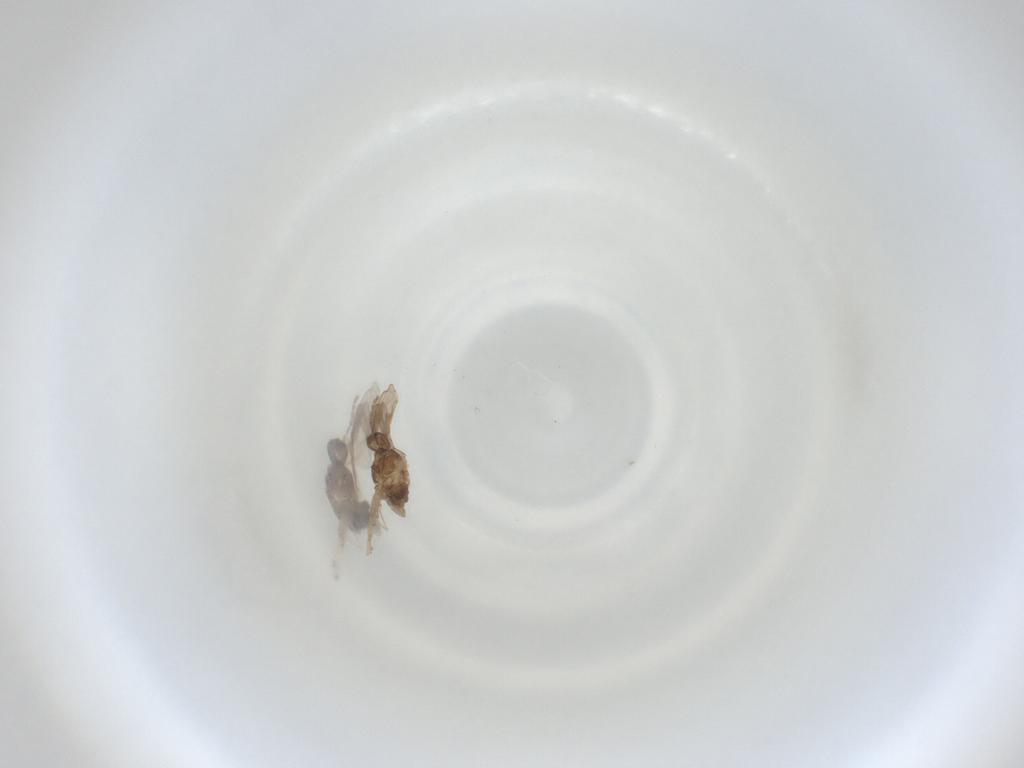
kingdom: Animalia
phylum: Arthropoda
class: Insecta
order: Diptera
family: Cecidomyiidae
